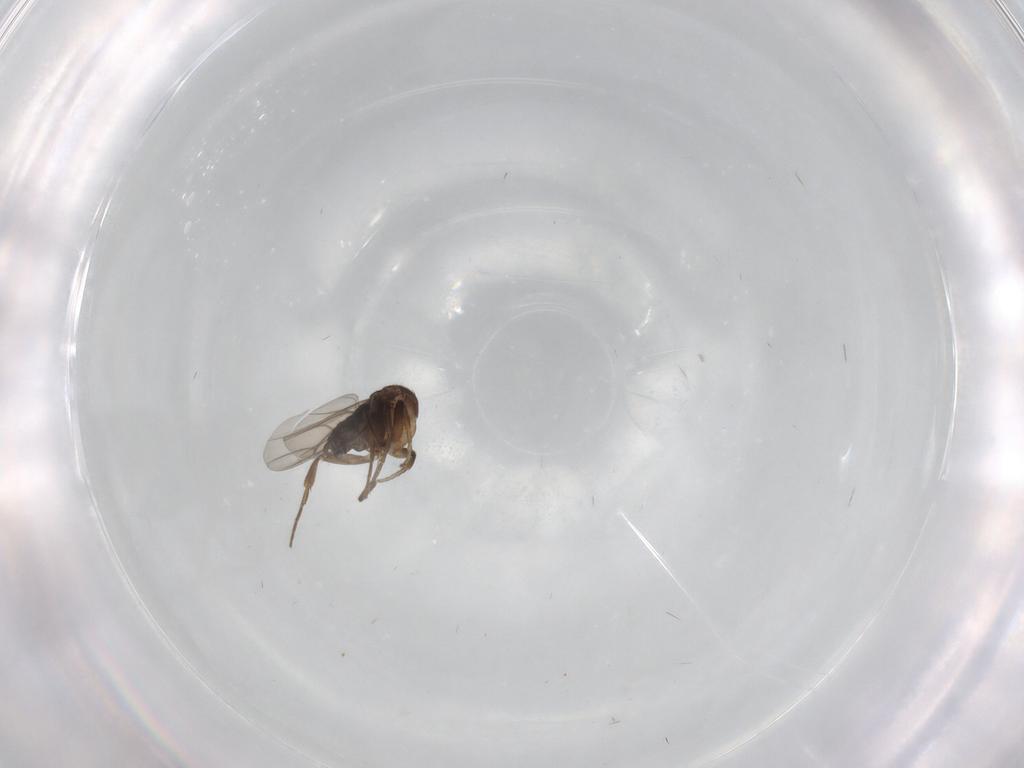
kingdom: Animalia
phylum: Arthropoda
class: Insecta
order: Diptera
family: Phoridae
